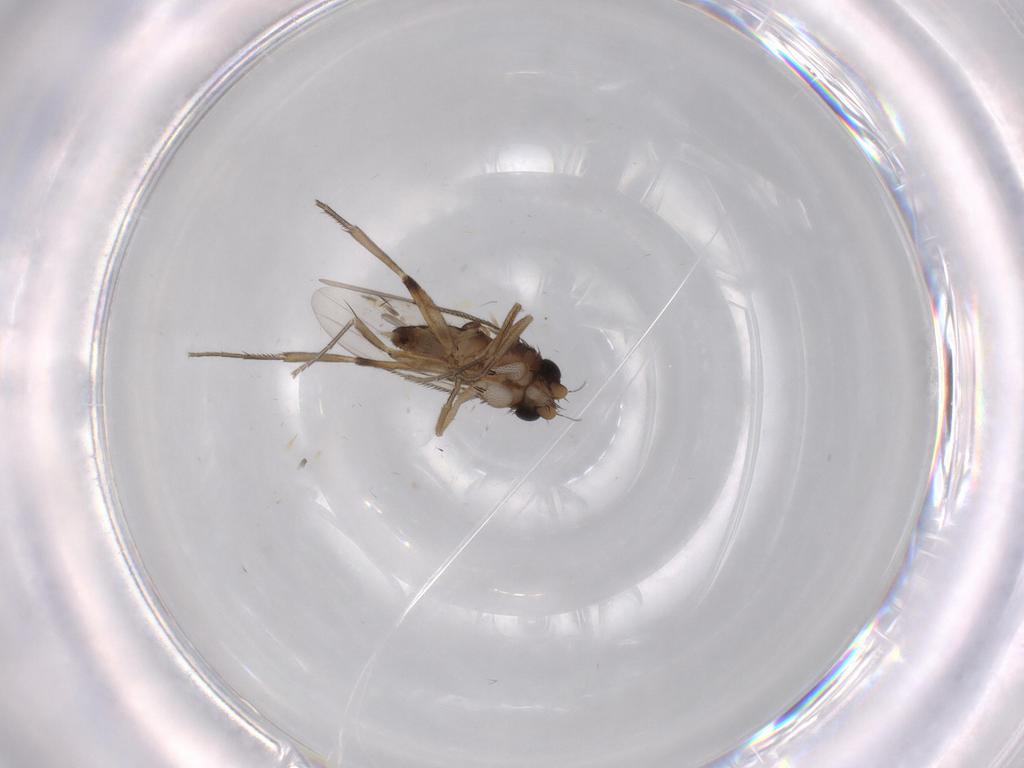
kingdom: Animalia
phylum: Arthropoda
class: Insecta
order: Diptera
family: Phoridae
